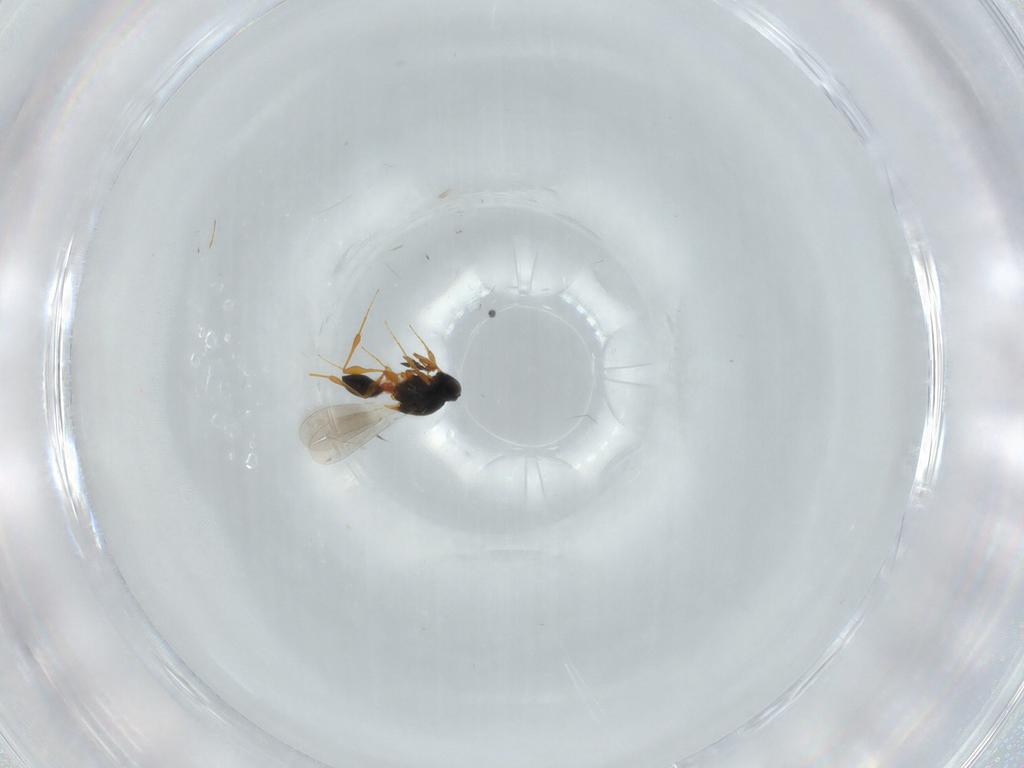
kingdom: Animalia
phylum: Arthropoda
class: Insecta
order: Hymenoptera
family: Platygastridae
